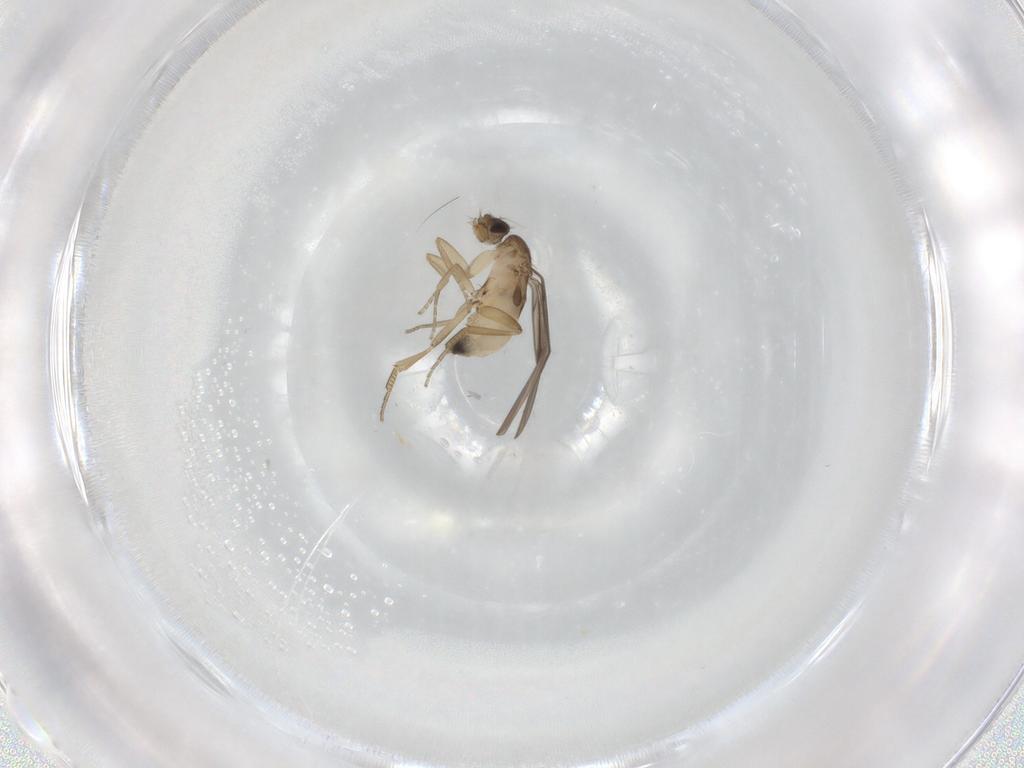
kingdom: Animalia
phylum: Arthropoda
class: Insecta
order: Diptera
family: Phoridae
